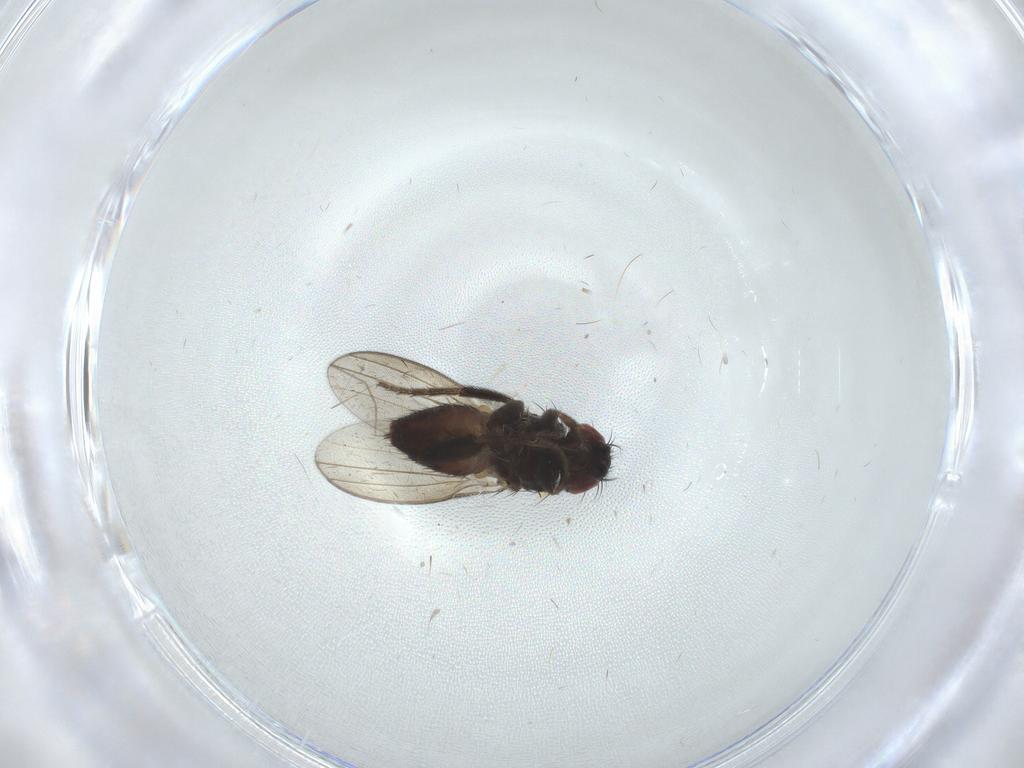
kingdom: Animalia
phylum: Arthropoda
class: Insecta
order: Diptera
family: Milichiidae
